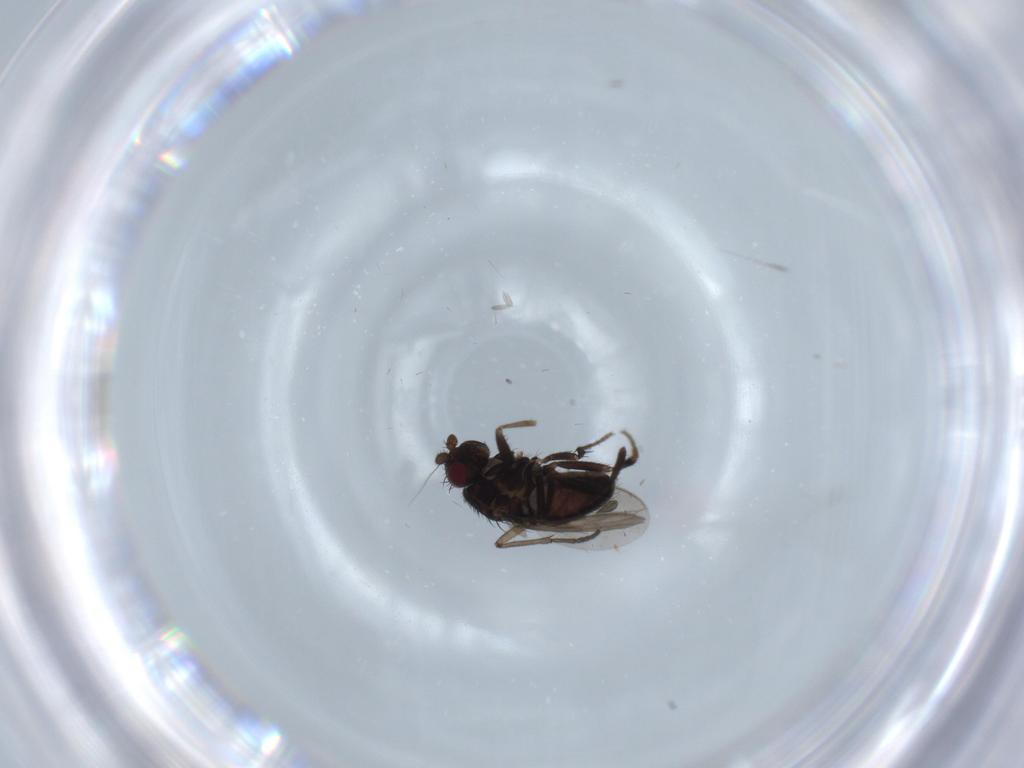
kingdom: Animalia
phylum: Arthropoda
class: Insecta
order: Diptera
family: Sphaeroceridae
